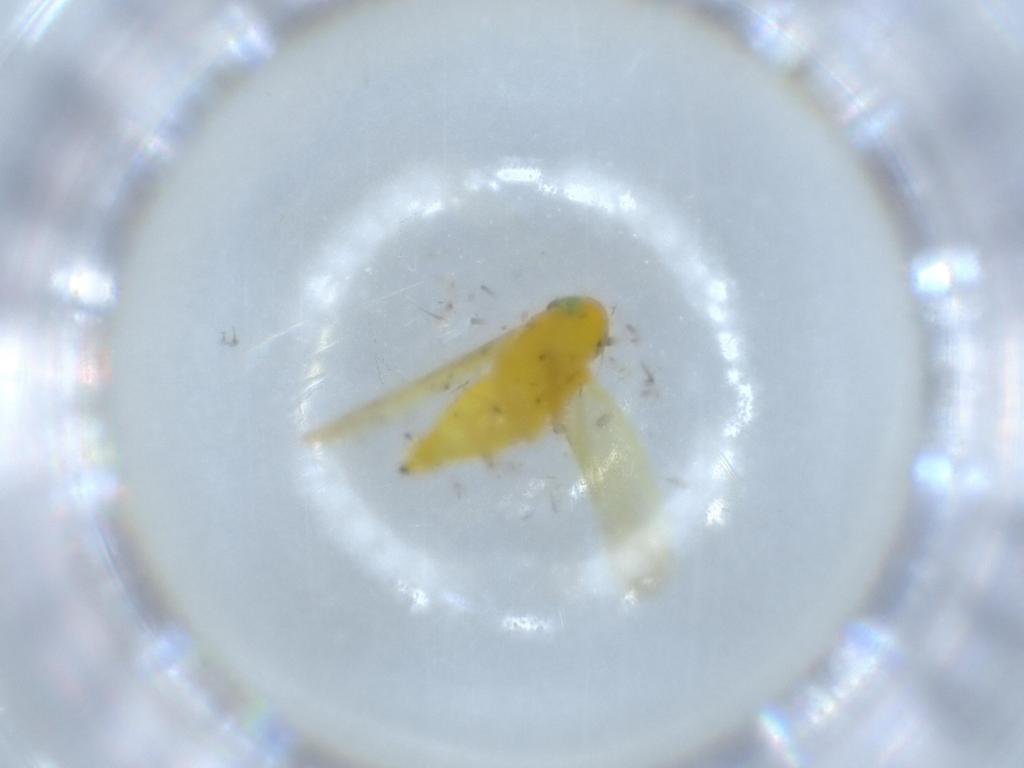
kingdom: Animalia
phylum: Arthropoda
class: Insecta
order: Hemiptera
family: Cicadellidae
